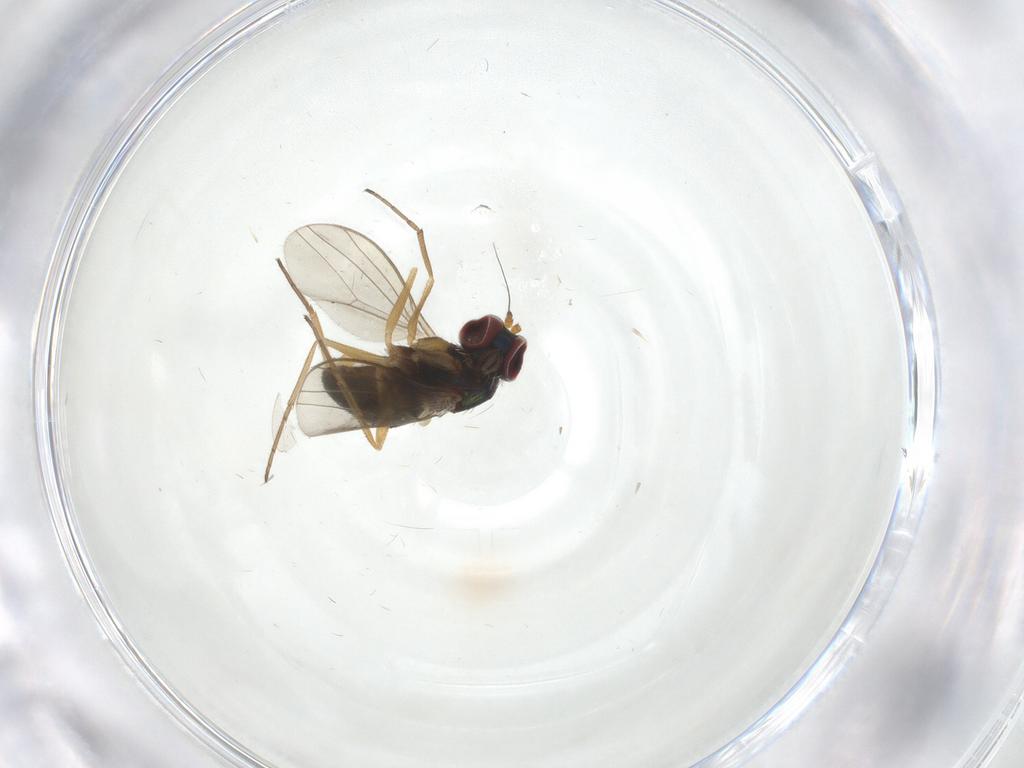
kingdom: Animalia
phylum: Arthropoda
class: Insecta
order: Diptera
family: Dolichopodidae
